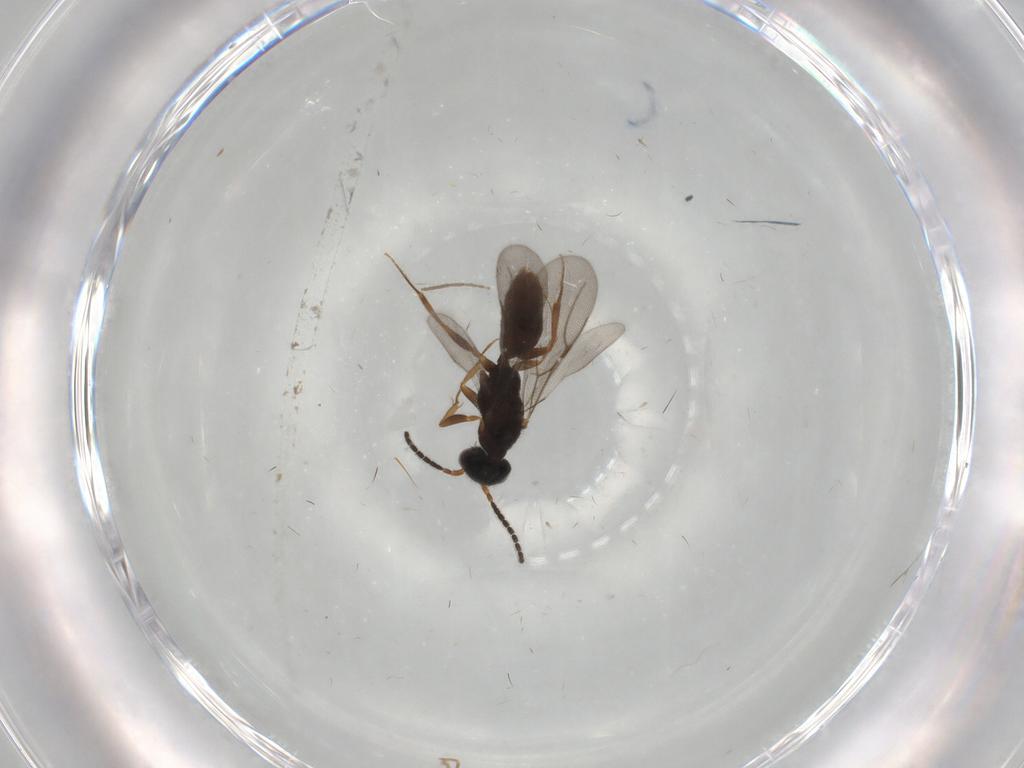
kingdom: Animalia
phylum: Arthropoda
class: Insecta
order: Hymenoptera
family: Bethylidae
